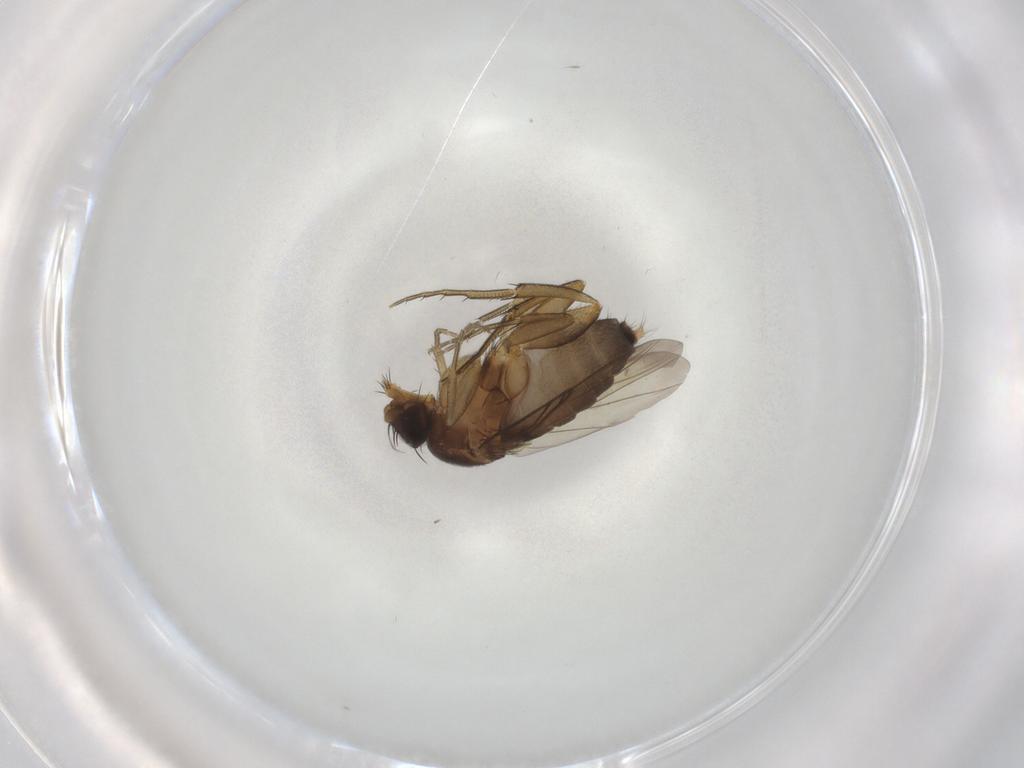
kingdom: Animalia
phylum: Arthropoda
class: Insecta
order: Diptera
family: Phoridae
